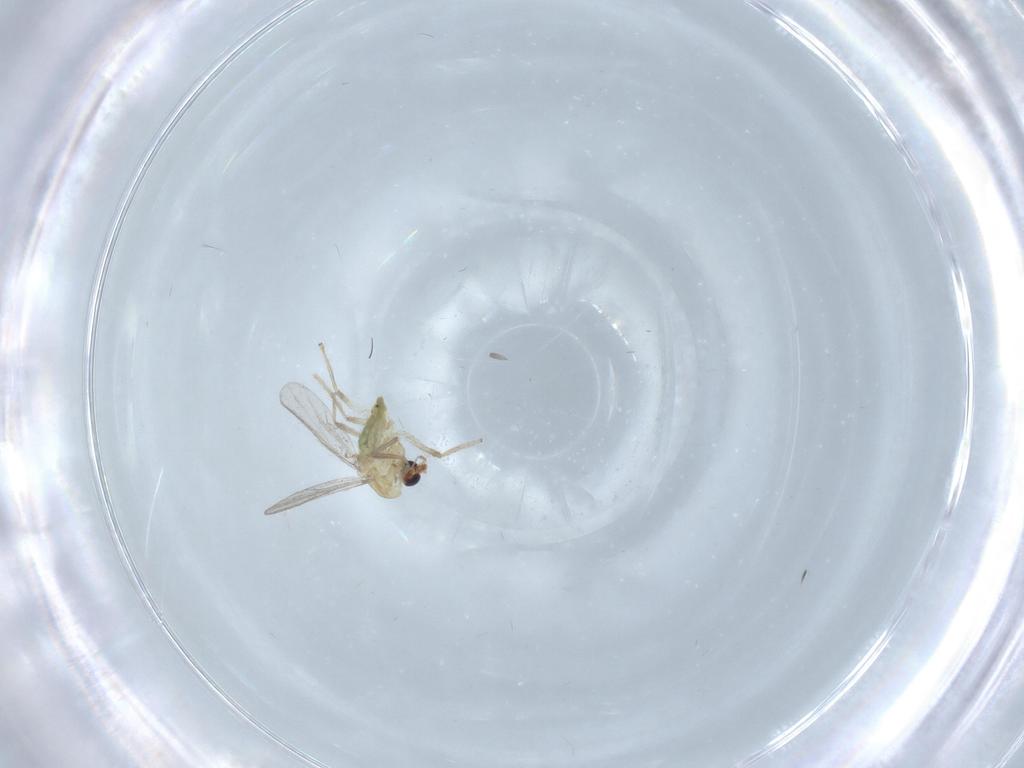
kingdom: Animalia
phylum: Arthropoda
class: Insecta
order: Diptera
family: Chironomidae
